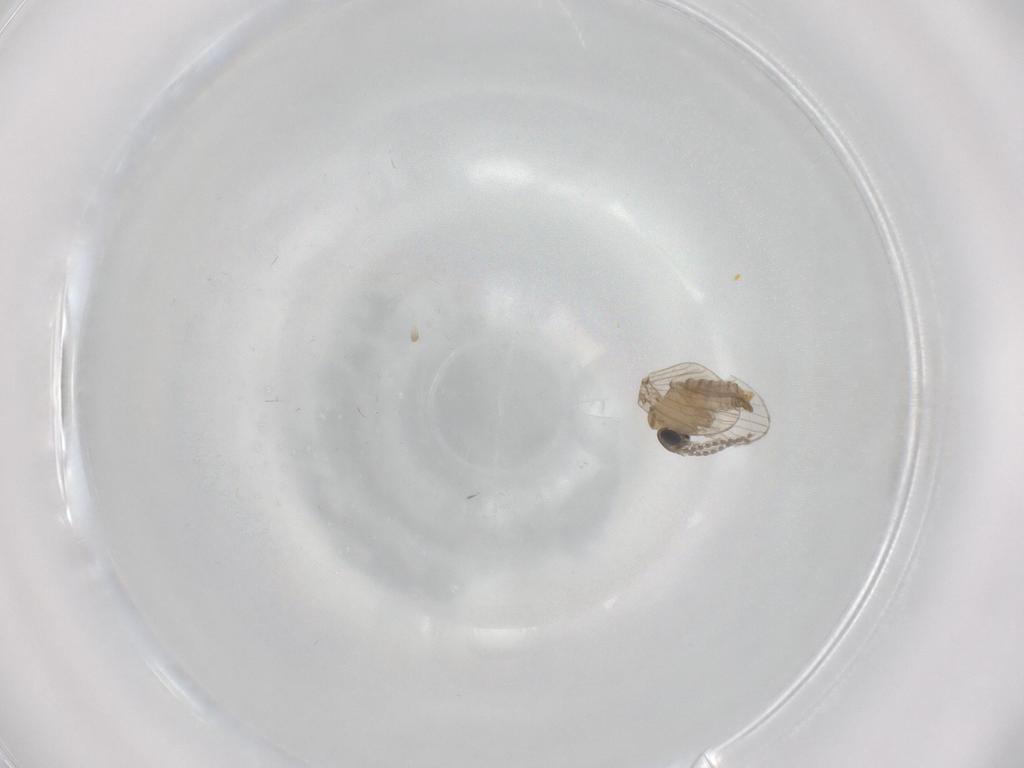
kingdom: Animalia
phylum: Arthropoda
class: Insecta
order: Diptera
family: Psychodidae
